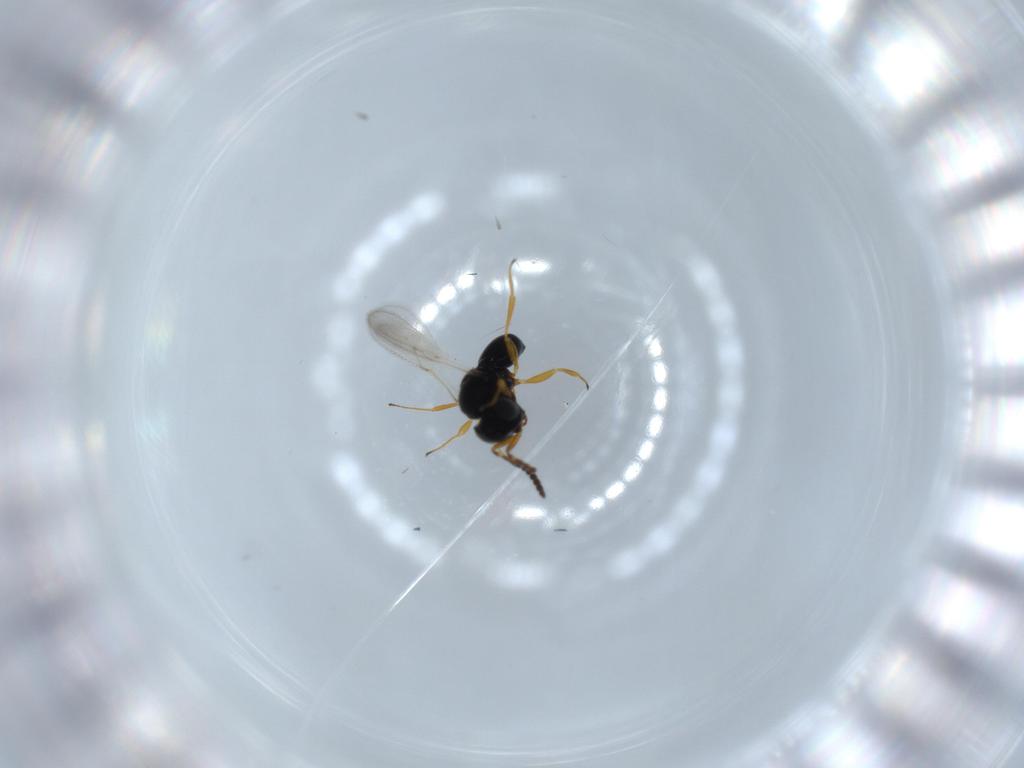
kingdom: Animalia
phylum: Arthropoda
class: Insecta
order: Hymenoptera
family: Scelionidae
